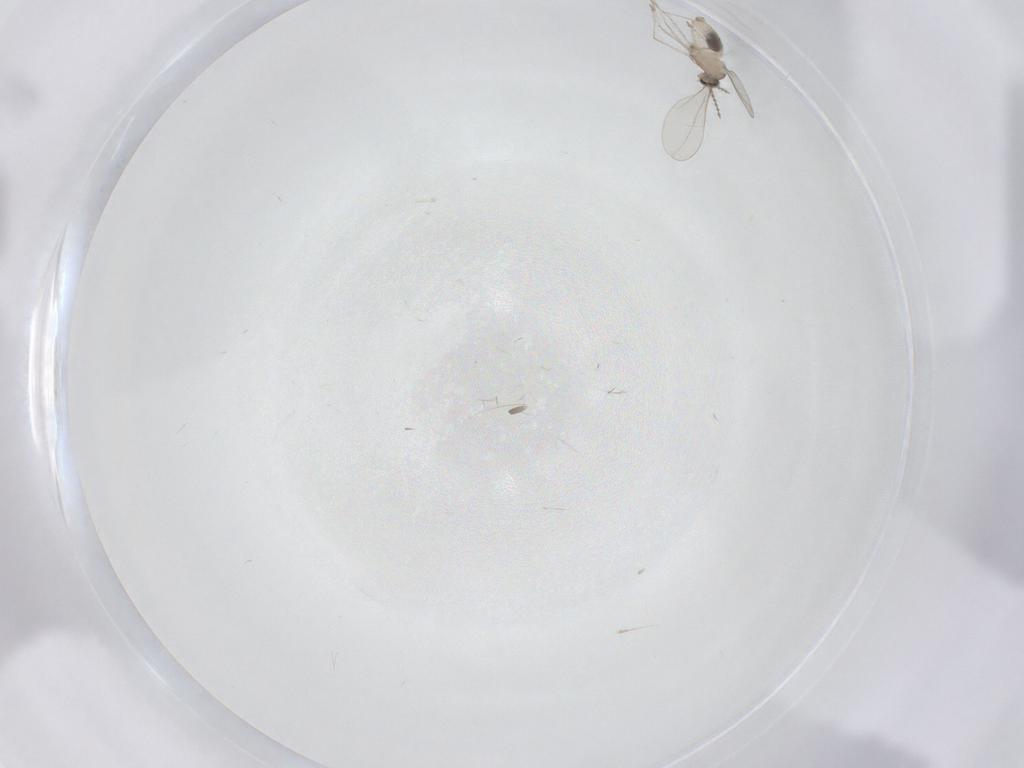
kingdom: Animalia
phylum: Arthropoda
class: Insecta
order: Diptera
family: Cecidomyiidae
